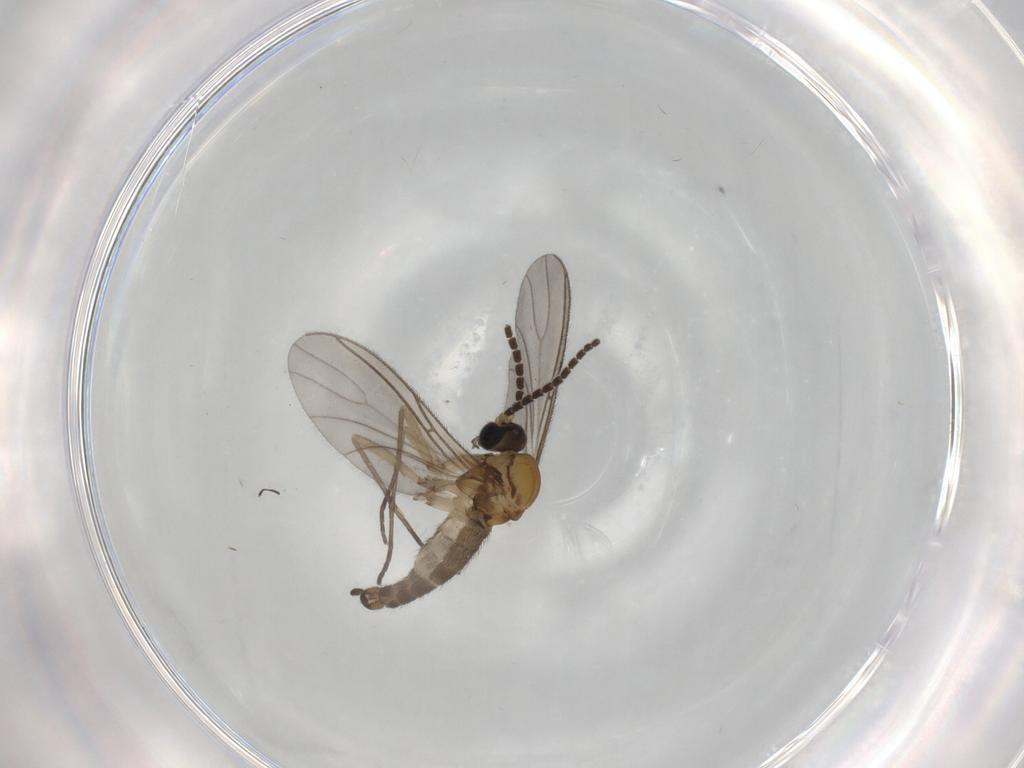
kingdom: Animalia
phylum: Arthropoda
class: Insecta
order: Diptera
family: Sciaridae
